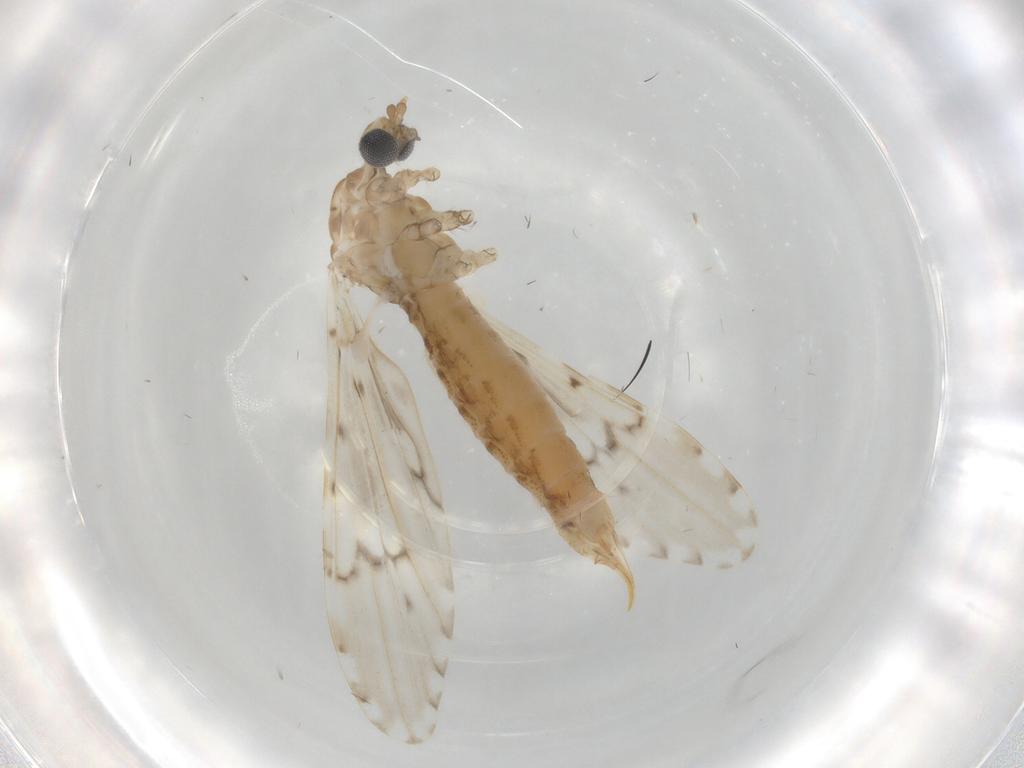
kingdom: Animalia
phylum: Arthropoda
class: Insecta
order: Diptera
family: Limoniidae
